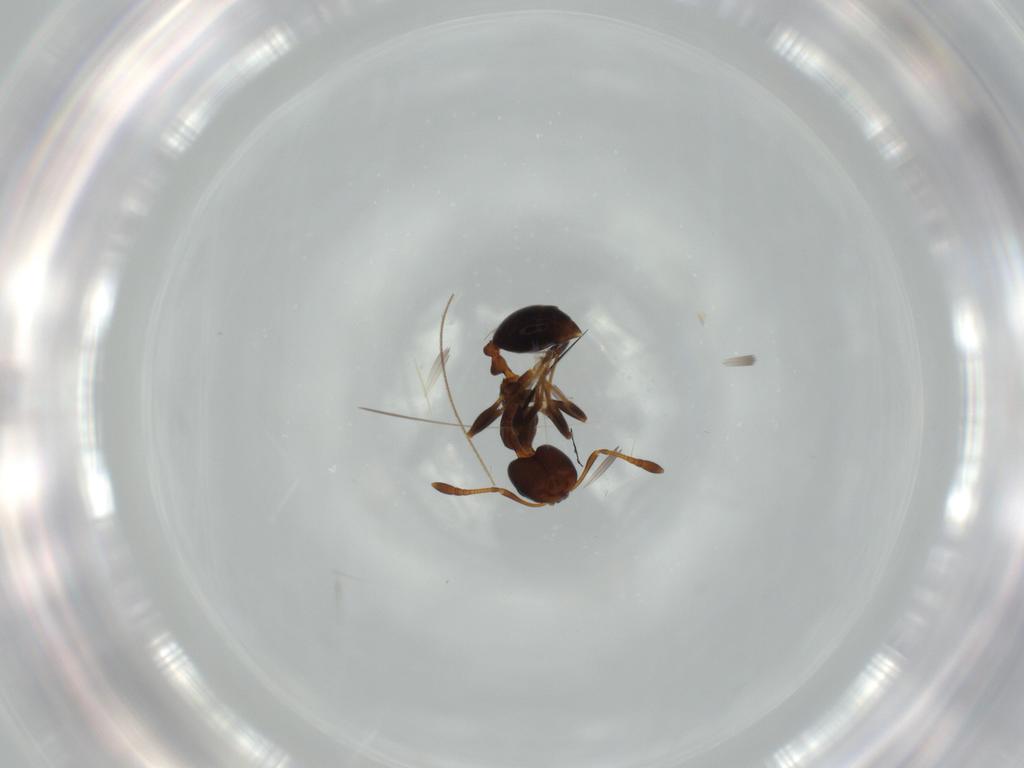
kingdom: Animalia
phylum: Arthropoda
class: Insecta
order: Hymenoptera
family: Formicidae
